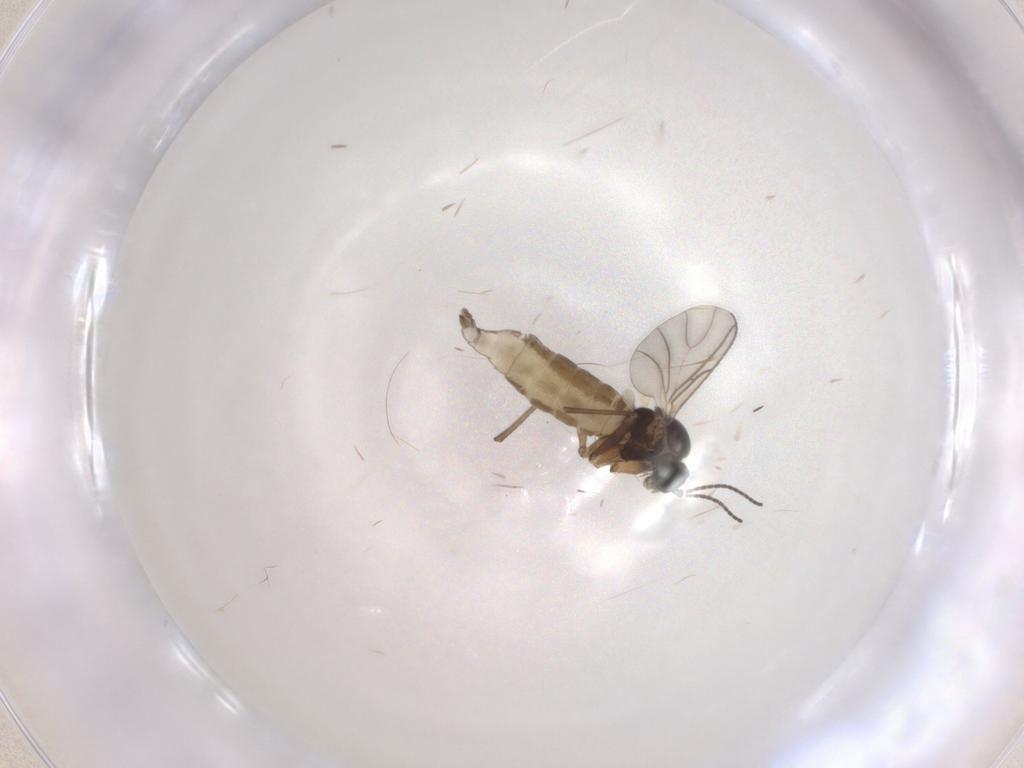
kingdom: Animalia
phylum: Arthropoda
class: Insecta
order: Diptera
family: Sciaridae
